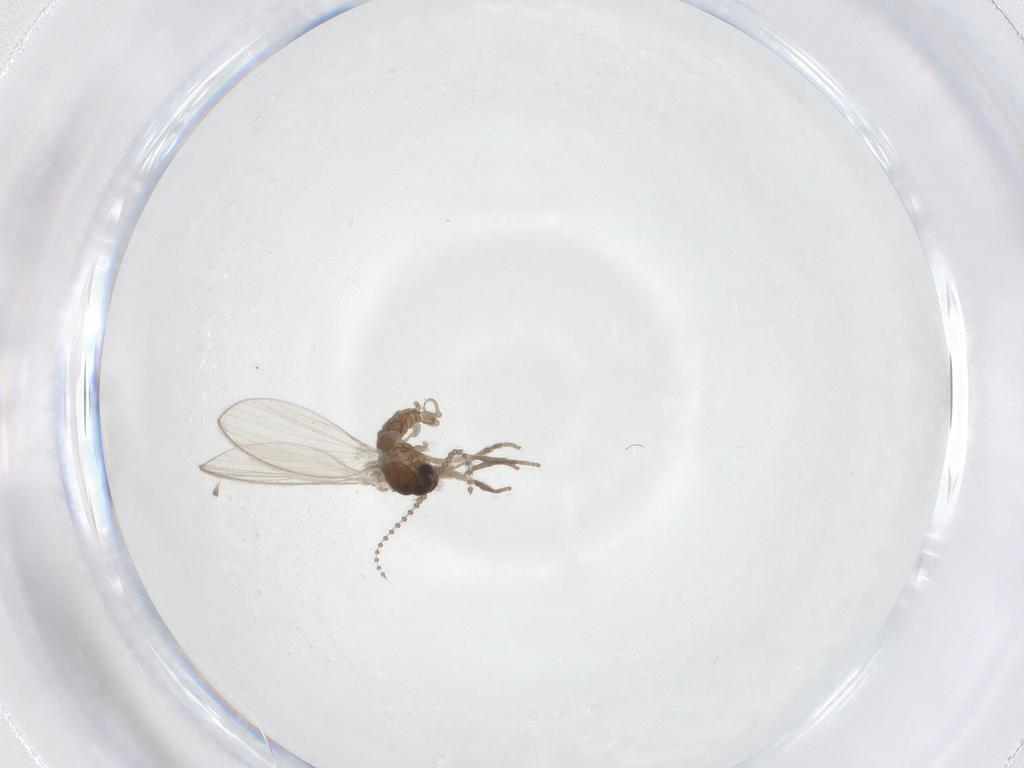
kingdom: Animalia
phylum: Arthropoda
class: Insecta
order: Diptera
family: Psychodidae
